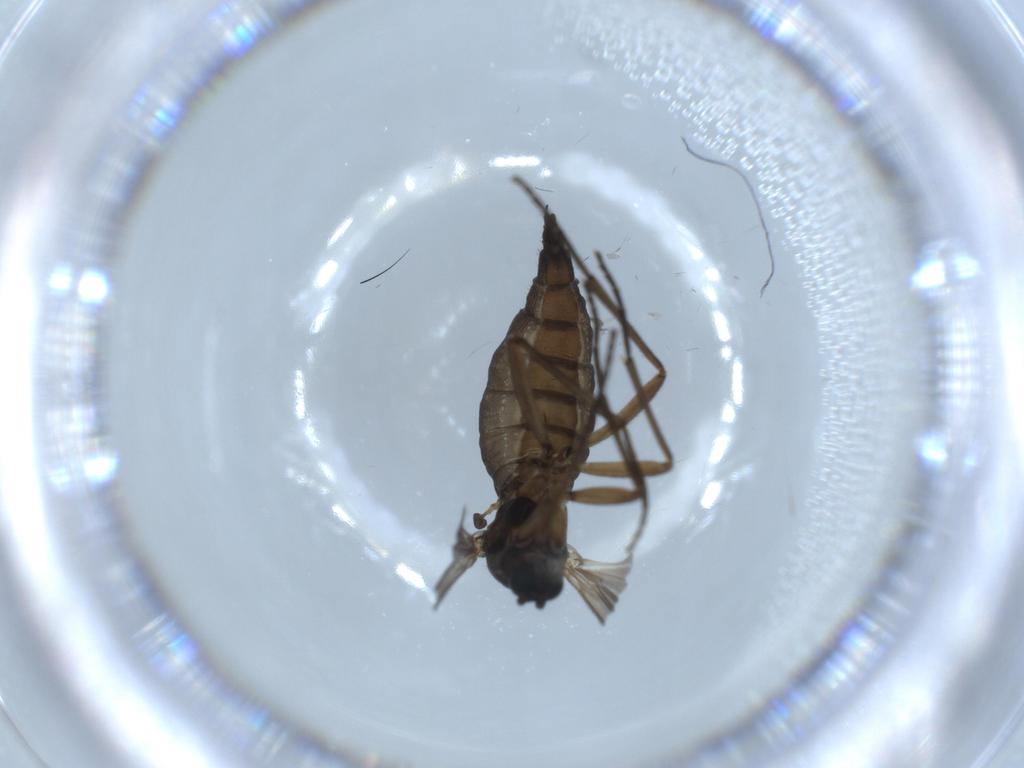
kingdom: Animalia
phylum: Arthropoda
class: Insecta
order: Diptera
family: Sciaridae
